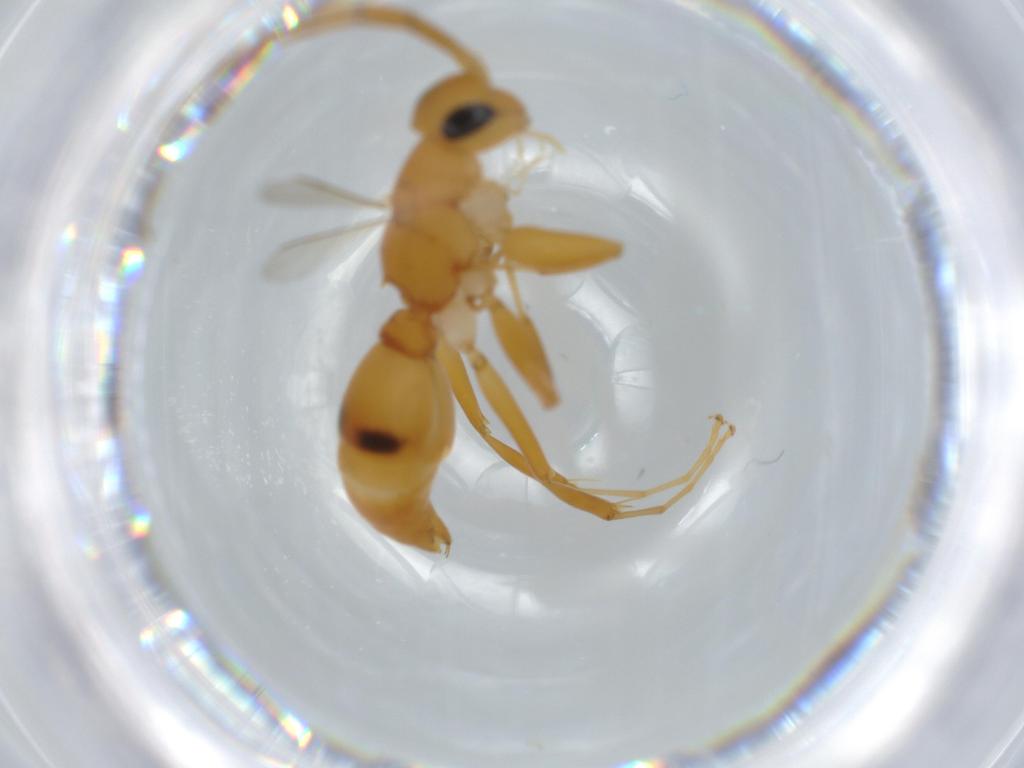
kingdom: Animalia
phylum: Arthropoda
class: Insecta
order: Hymenoptera
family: Rhopalosomatidae
